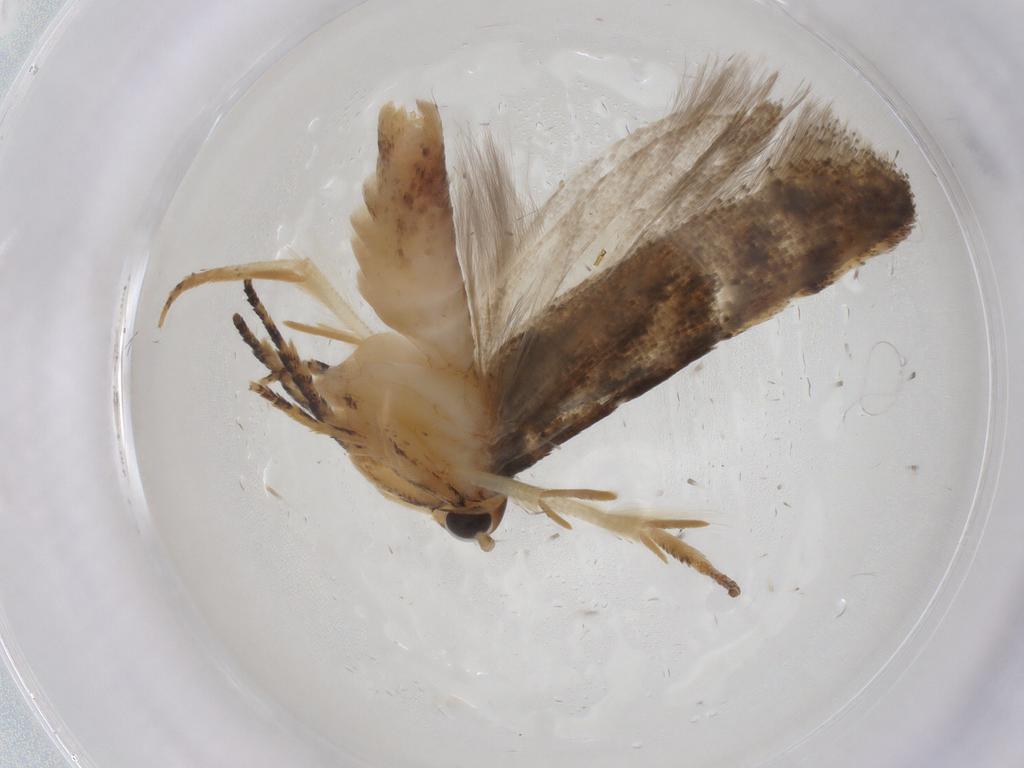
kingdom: Animalia
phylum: Arthropoda
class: Insecta
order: Lepidoptera
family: Gelechiidae
